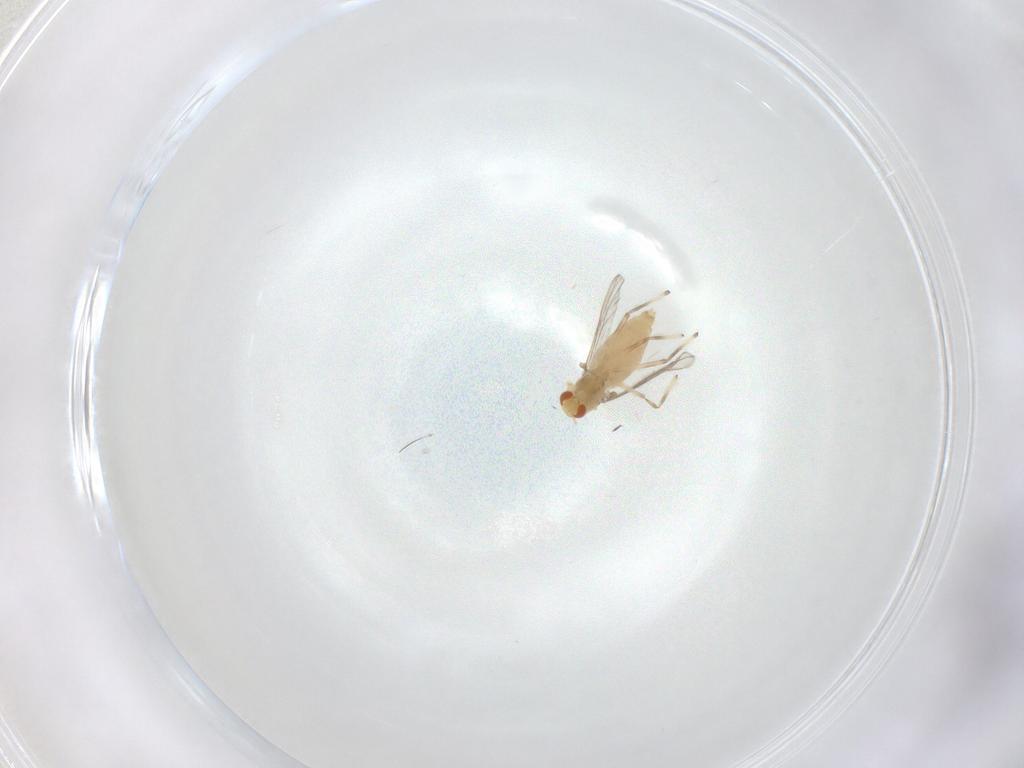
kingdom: Animalia
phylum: Arthropoda
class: Insecta
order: Diptera
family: Chironomidae
